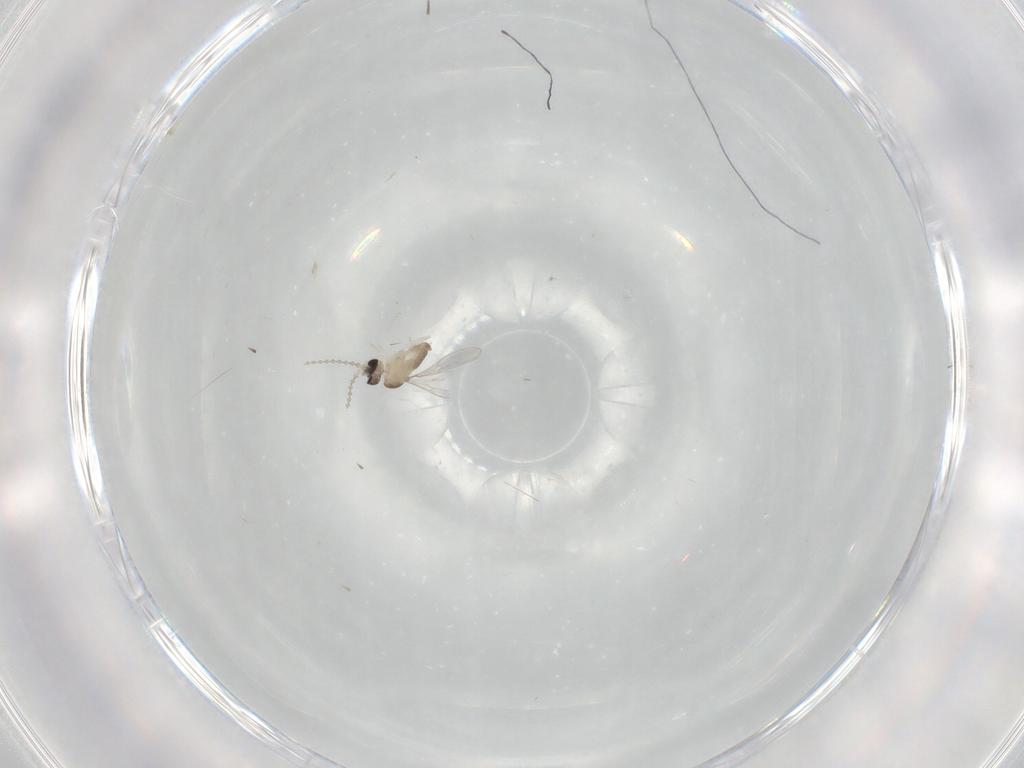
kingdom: Animalia
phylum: Arthropoda
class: Insecta
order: Diptera
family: Cecidomyiidae
